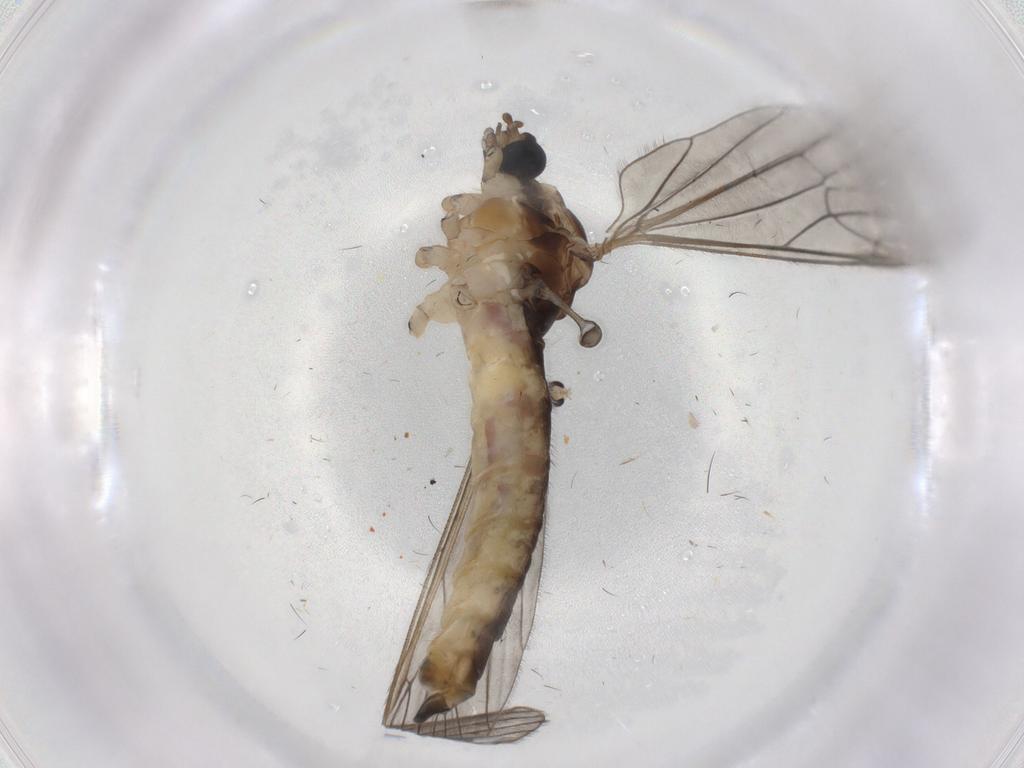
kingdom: Animalia
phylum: Arthropoda
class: Insecta
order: Diptera
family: Limoniidae
